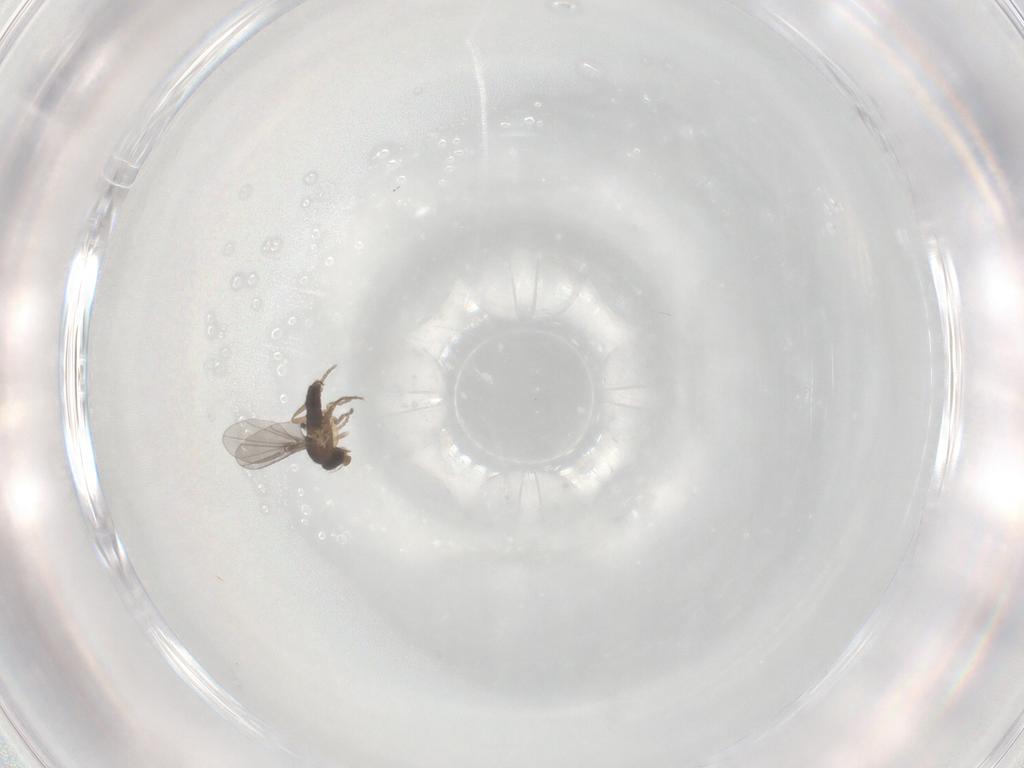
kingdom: Animalia
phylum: Arthropoda
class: Insecta
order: Diptera
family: Phoridae
